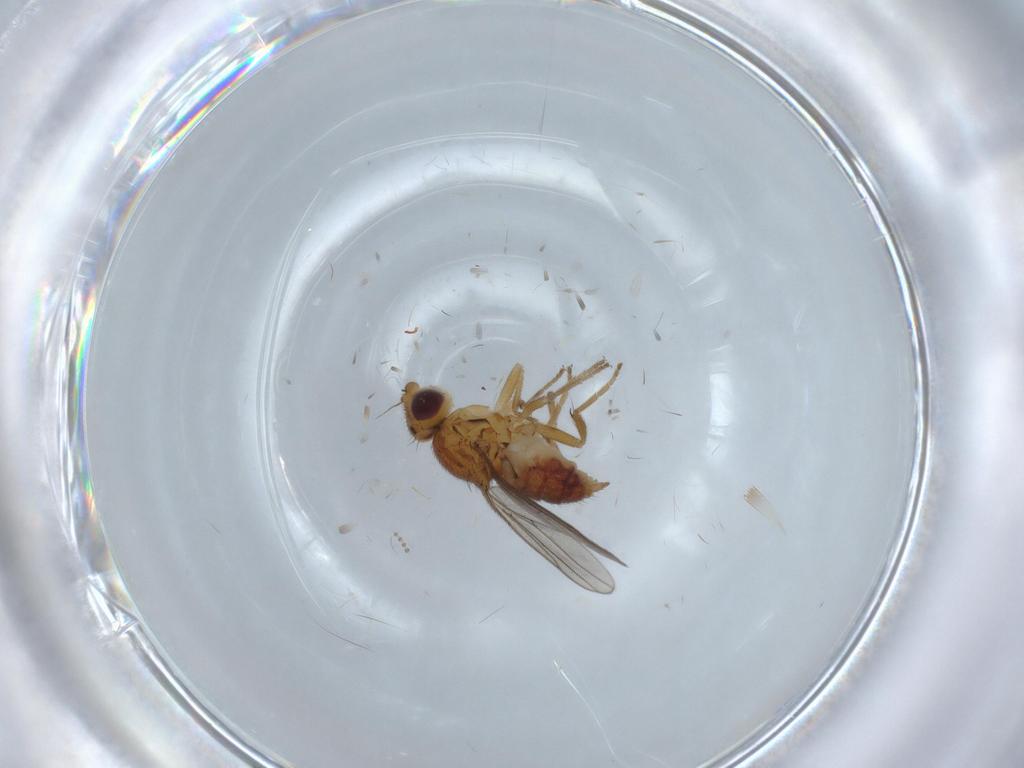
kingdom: Animalia
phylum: Arthropoda
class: Insecta
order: Diptera
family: Chloropidae
